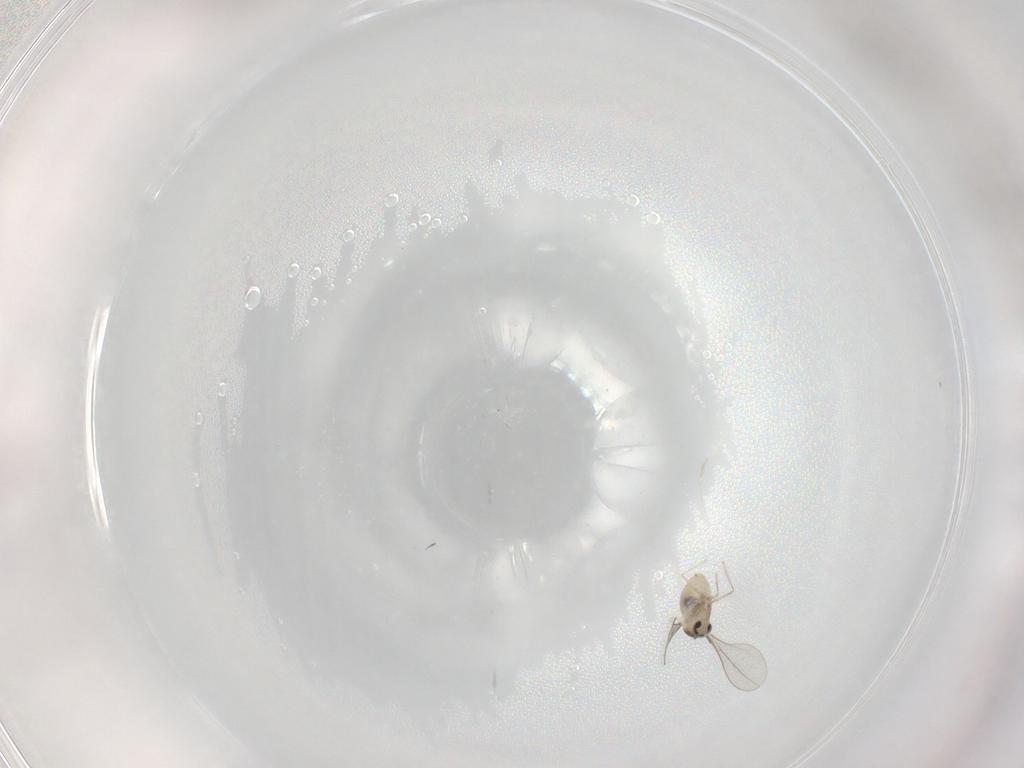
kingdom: Animalia
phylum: Arthropoda
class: Insecta
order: Diptera
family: Cecidomyiidae
